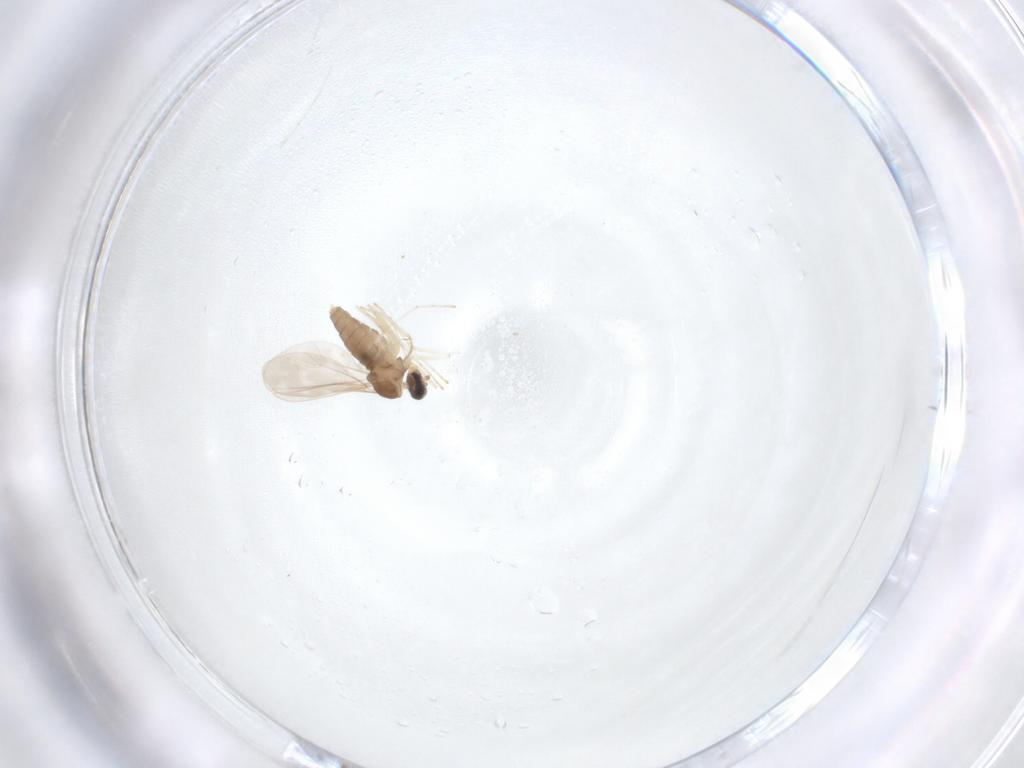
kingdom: Animalia
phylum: Arthropoda
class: Insecta
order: Diptera
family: Cecidomyiidae
